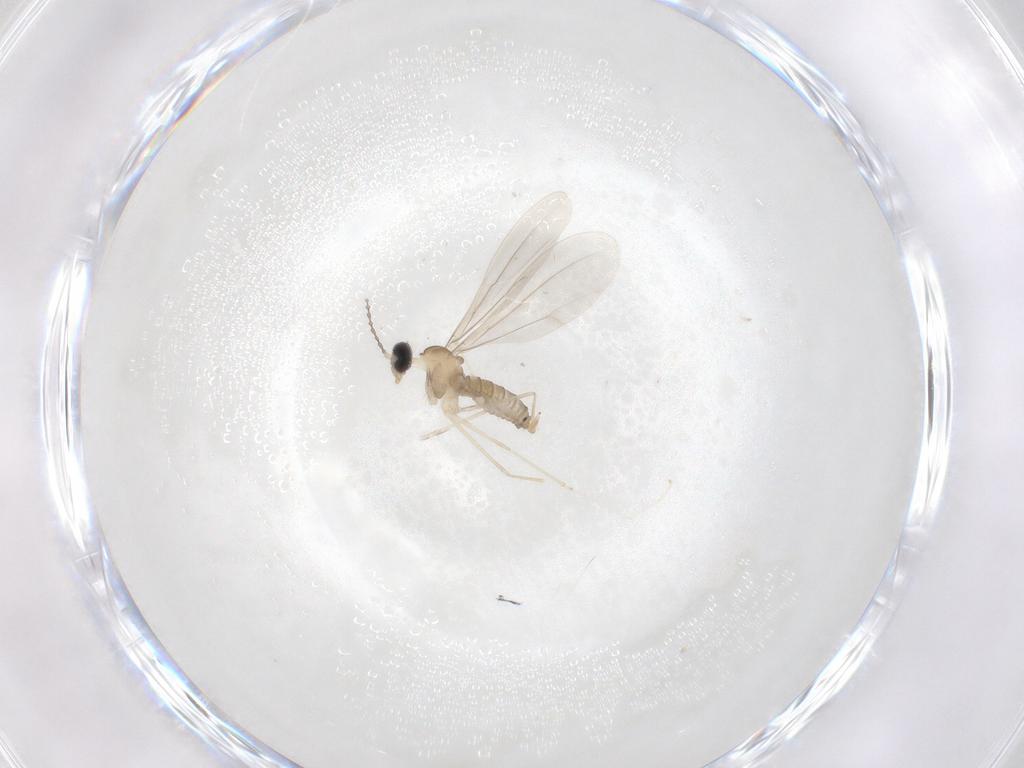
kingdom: Animalia
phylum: Arthropoda
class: Insecta
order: Diptera
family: Cecidomyiidae
